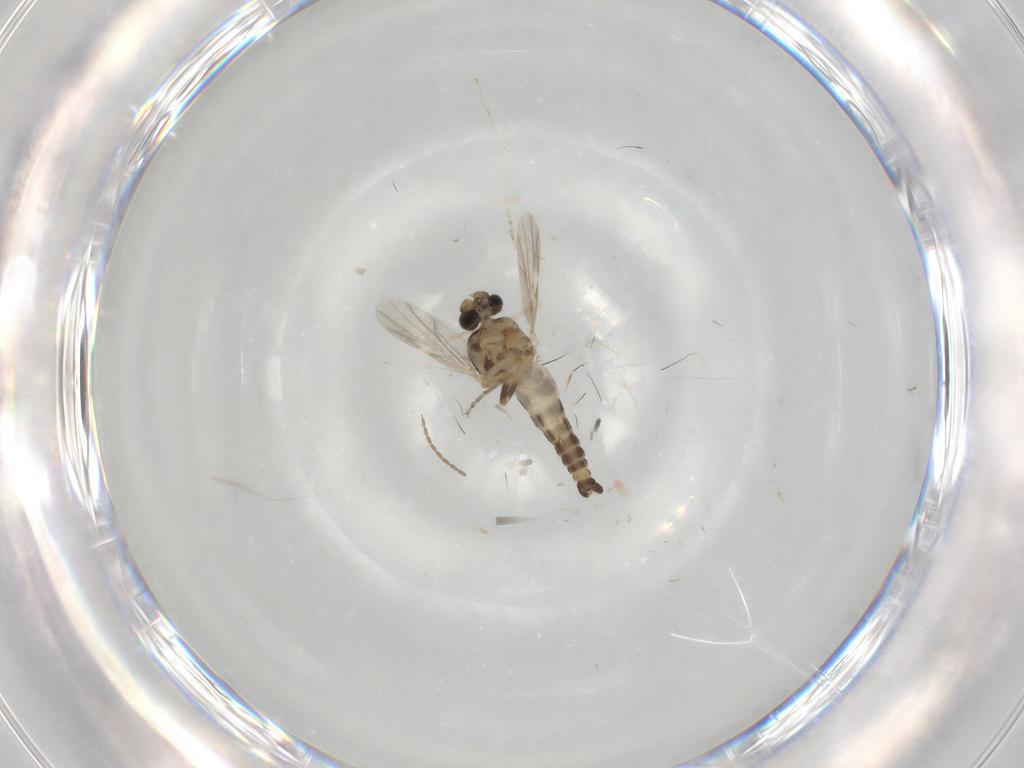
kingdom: Animalia
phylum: Arthropoda
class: Insecta
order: Diptera
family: Ceratopogonidae
